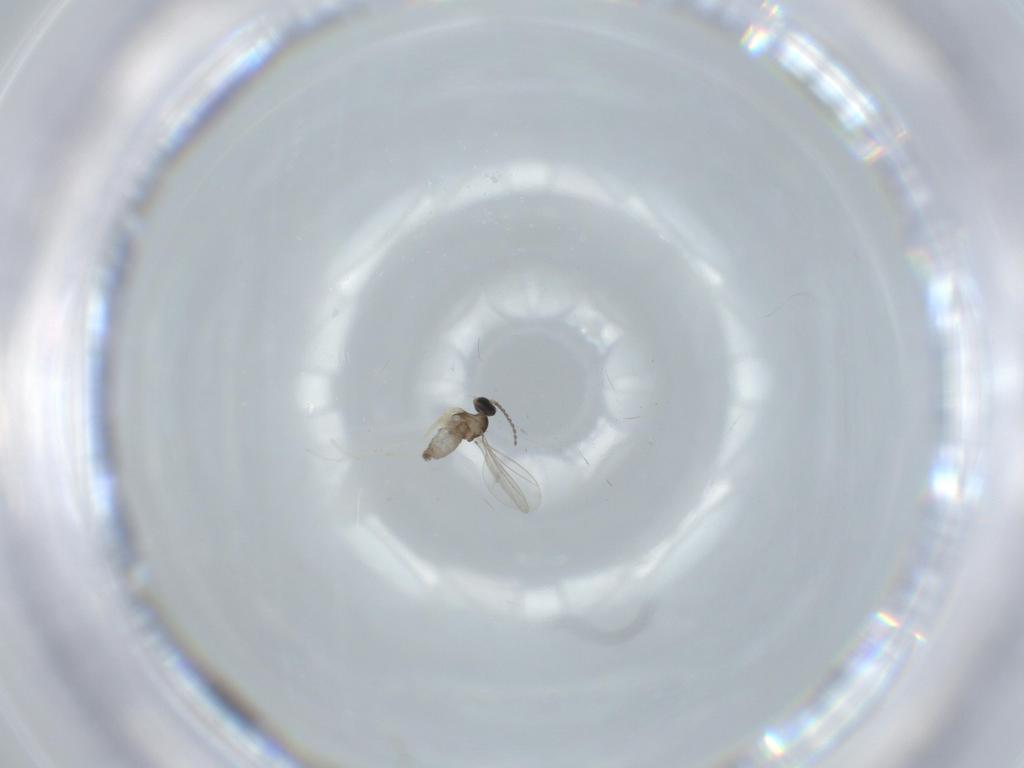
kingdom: Animalia
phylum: Arthropoda
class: Insecta
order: Diptera
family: Cecidomyiidae
